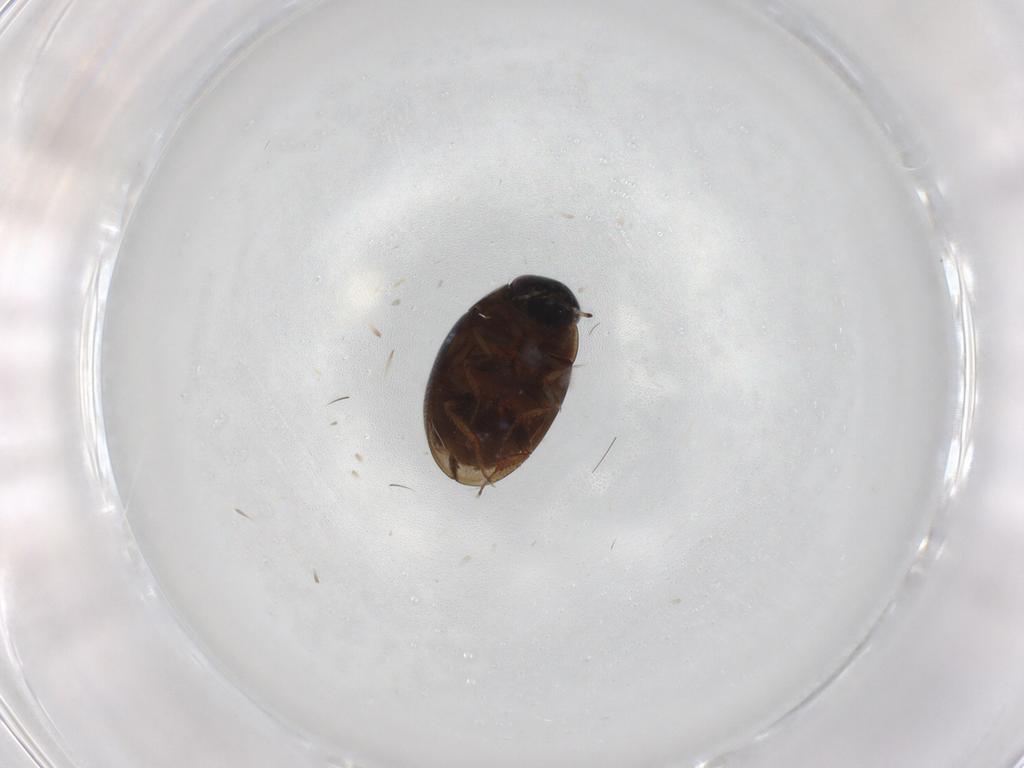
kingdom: Animalia
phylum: Arthropoda
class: Insecta
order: Coleoptera
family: Hydrophilidae
